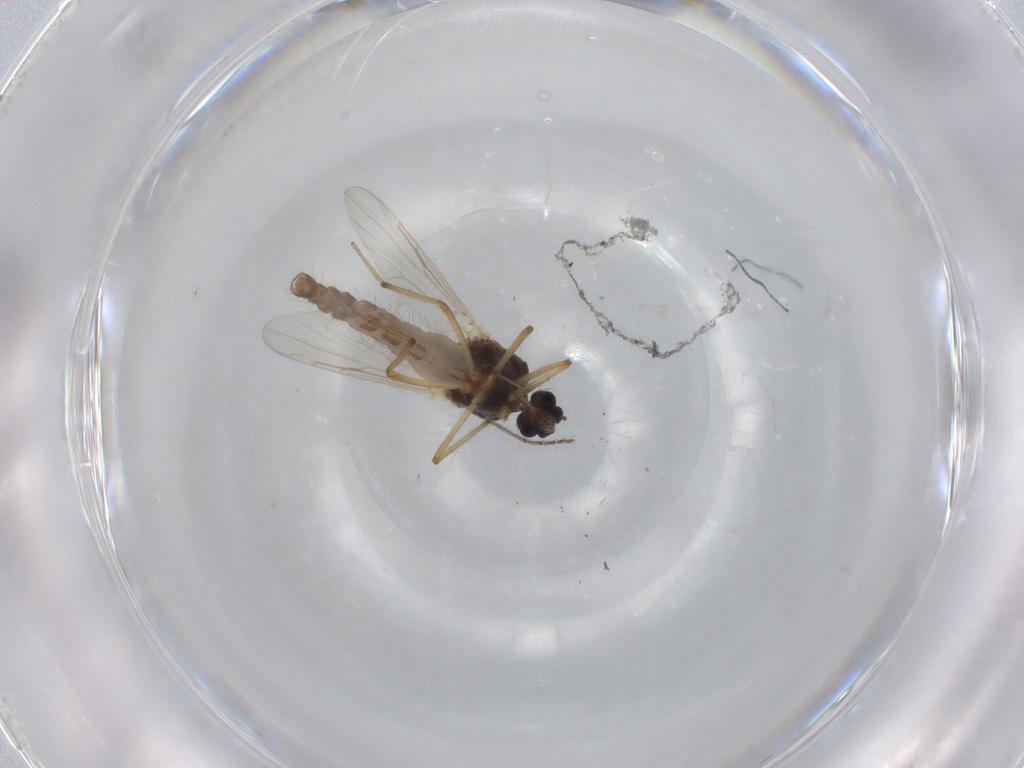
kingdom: Animalia
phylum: Arthropoda
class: Insecta
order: Diptera
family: Ceratopogonidae
